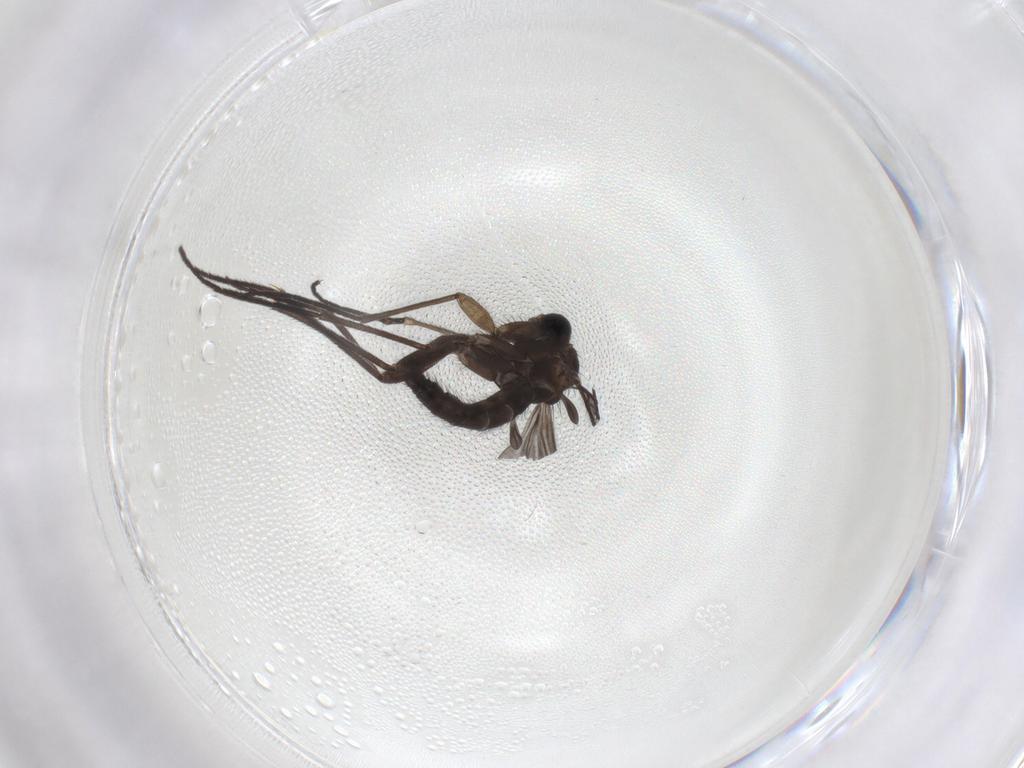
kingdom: Animalia
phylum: Arthropoda
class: Insecta
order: Diptera
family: Sciaridae
